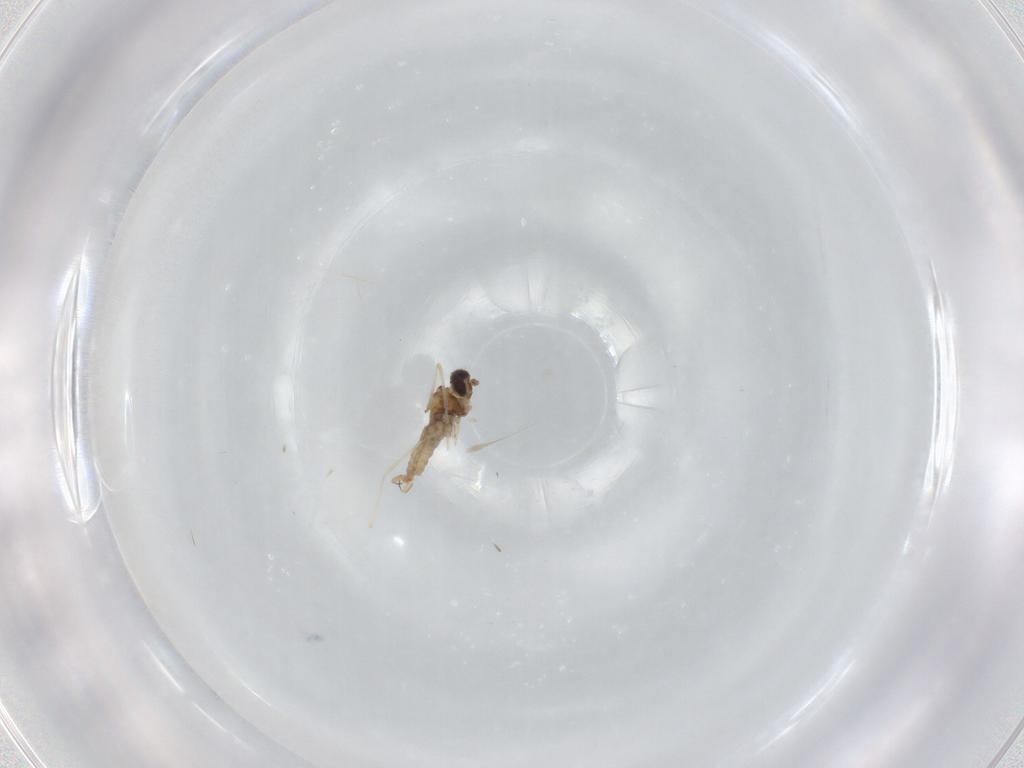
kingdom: Animalia
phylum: Arthropoda
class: Insecta
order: Diptera
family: Cecidomyiidae
